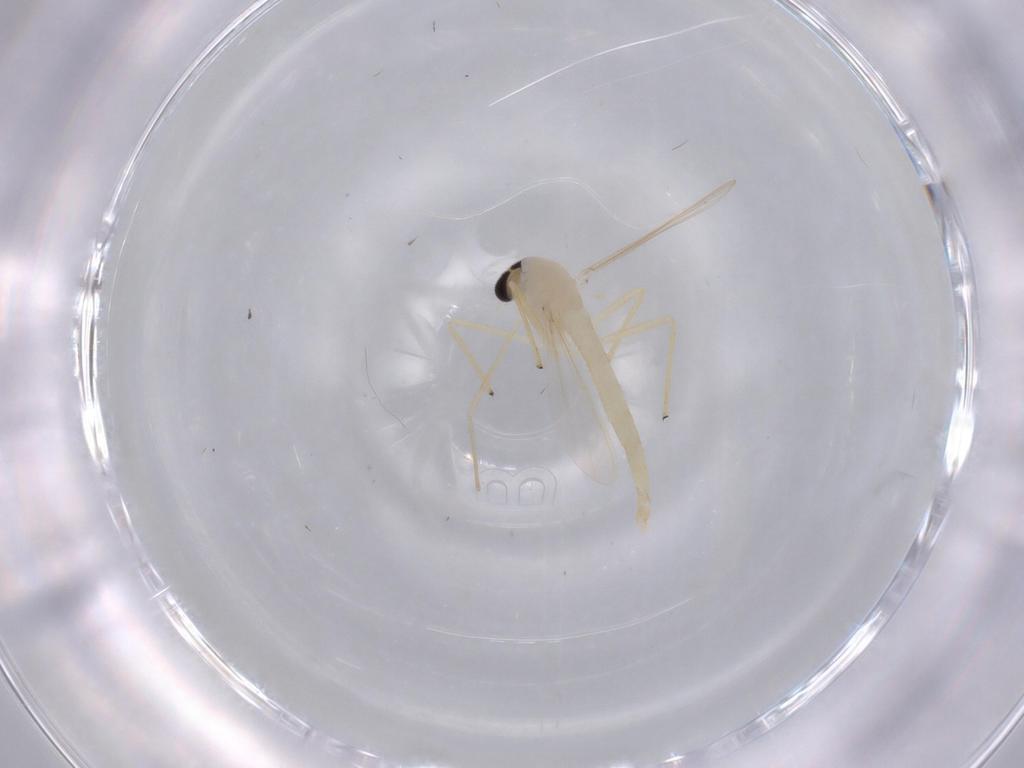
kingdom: Animalia
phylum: Arthropoda
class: Insecta
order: Diptera
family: Chironomidae
